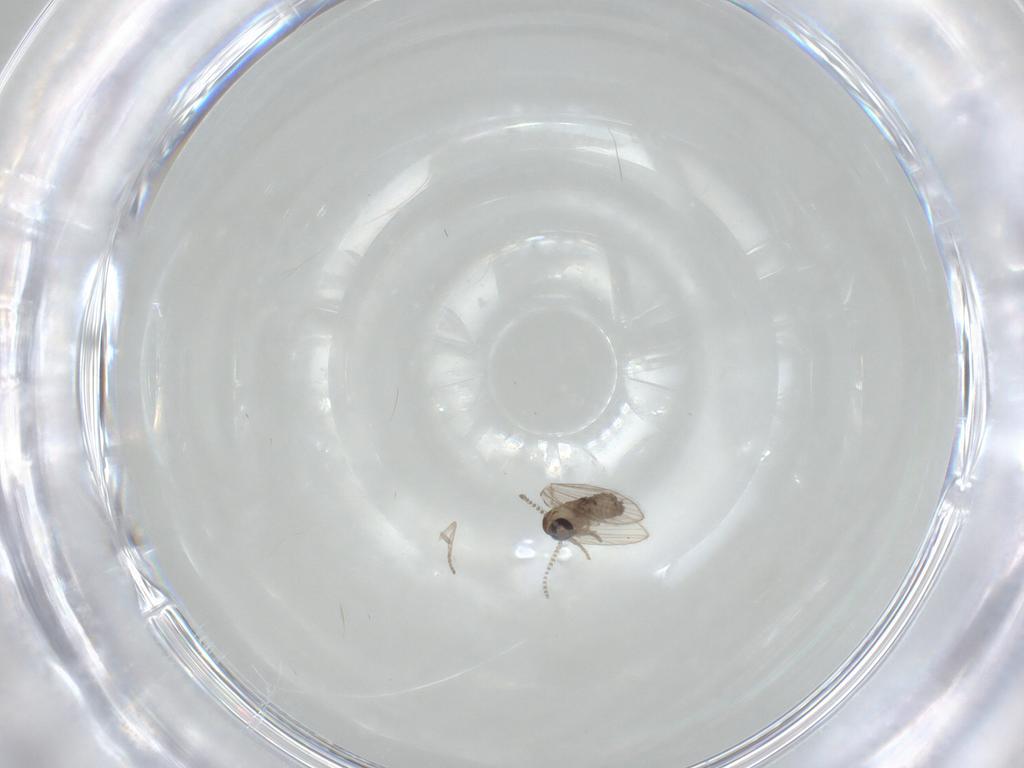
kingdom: Animalia
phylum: Arthropoda
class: Insecta
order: Diptera
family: Psychodidae
